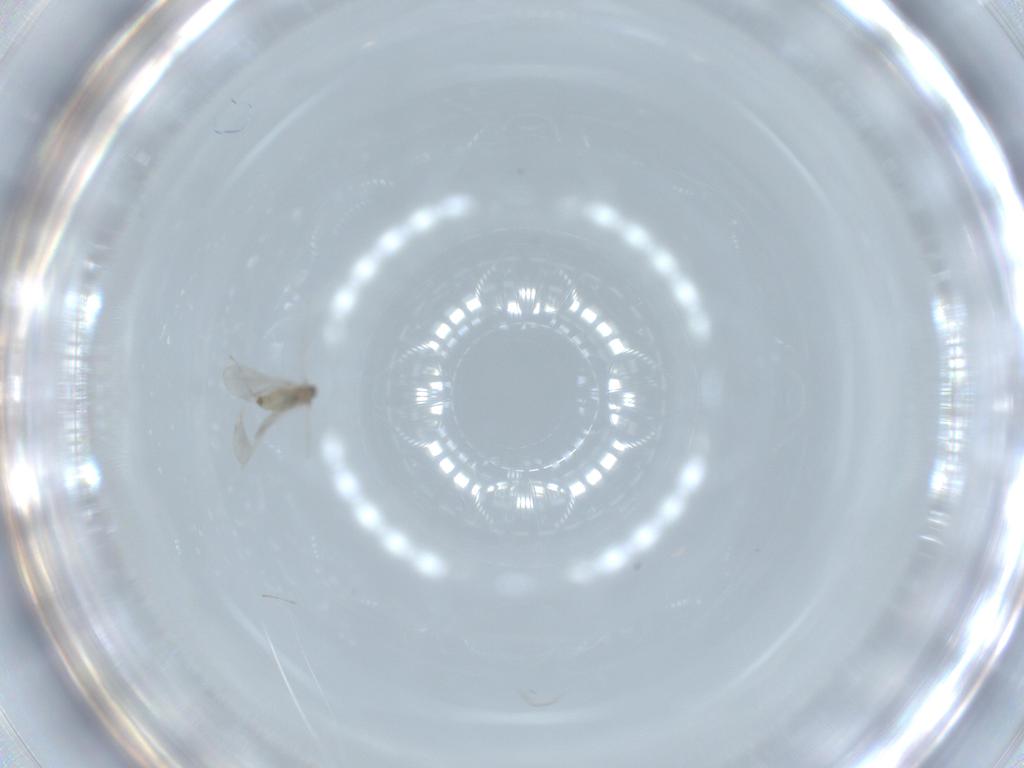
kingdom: Animalia
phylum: Arthropoda
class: Insecta
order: Diptera
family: Cecidomyiidae
